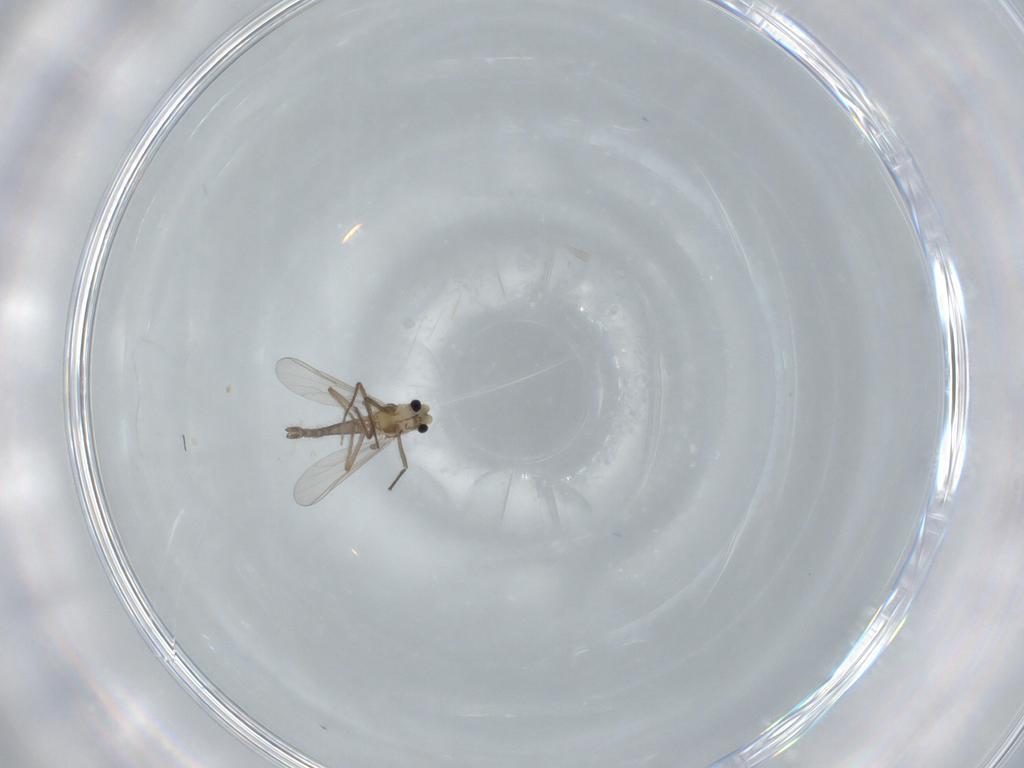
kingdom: Animalia
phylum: Arthropoda
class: Insecta
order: Diptera
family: Chironomidae
